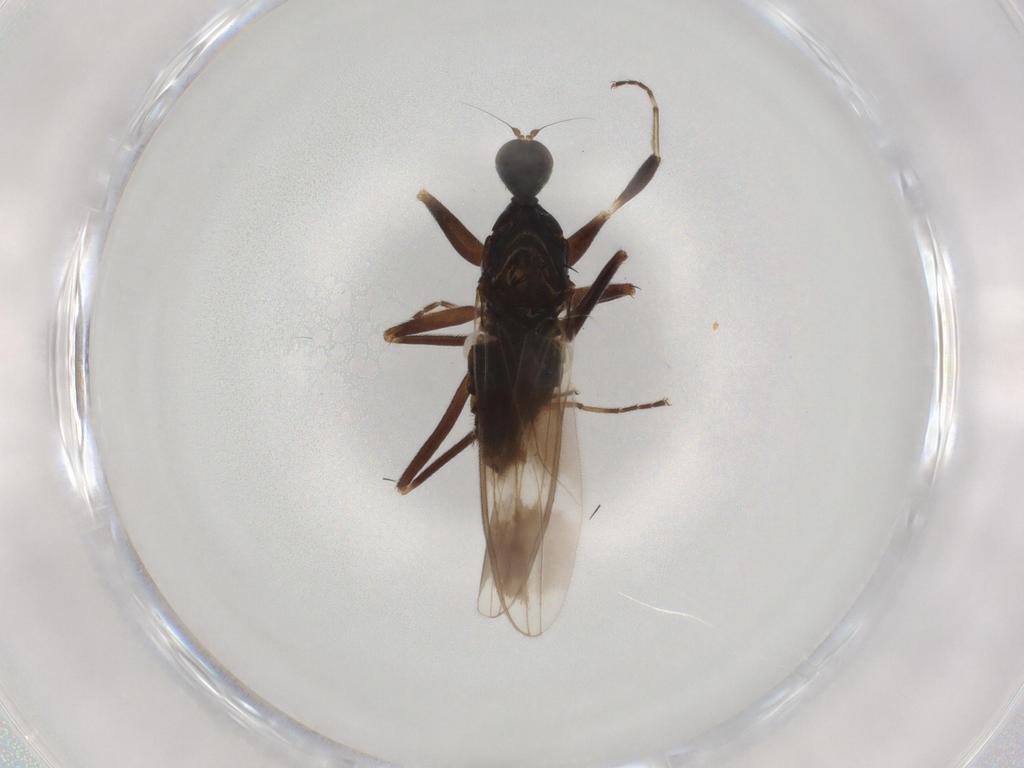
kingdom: Animalia
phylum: Arthropoda
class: Insecta
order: Diptera
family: Hybotidae
